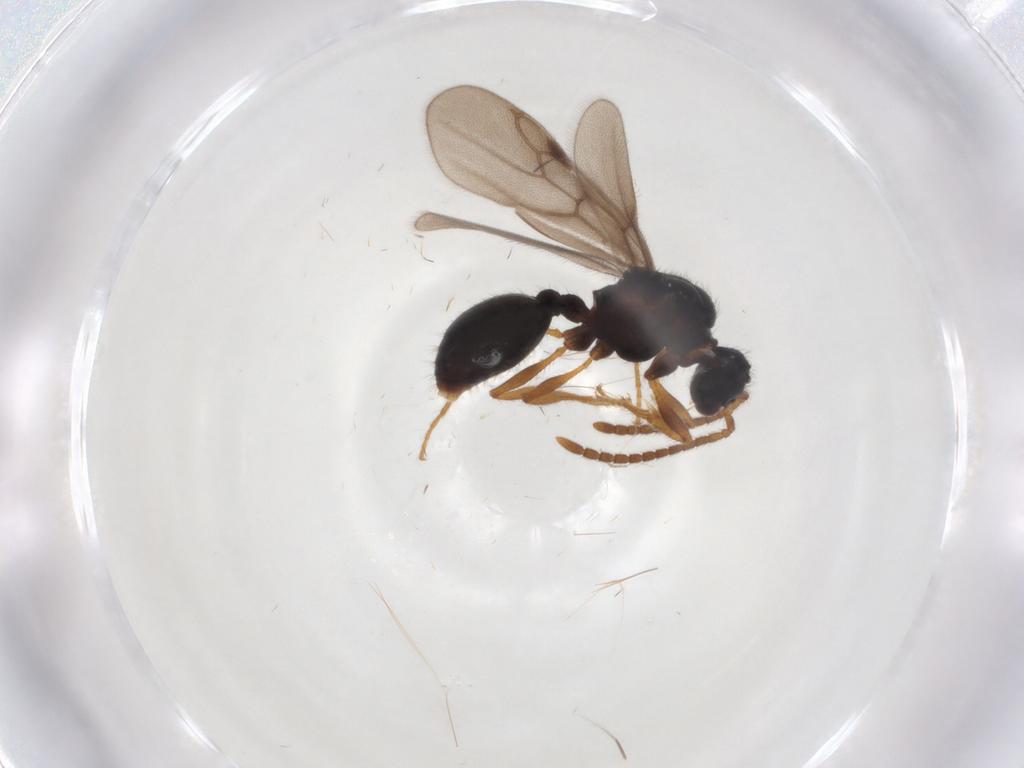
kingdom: Animalia
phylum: Arthropoda
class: Insecta
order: Hymenoptera
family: Formicidae
